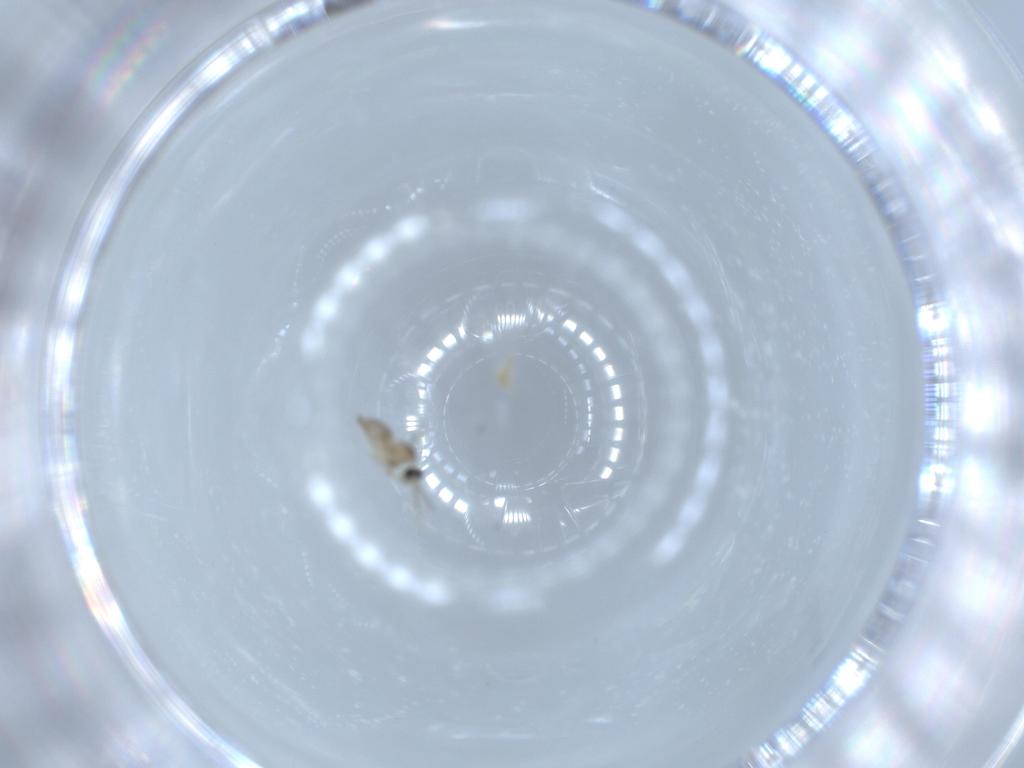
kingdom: Animalia
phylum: Arthropoda
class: Insecta
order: Diptera
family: Cecidomyiidae
